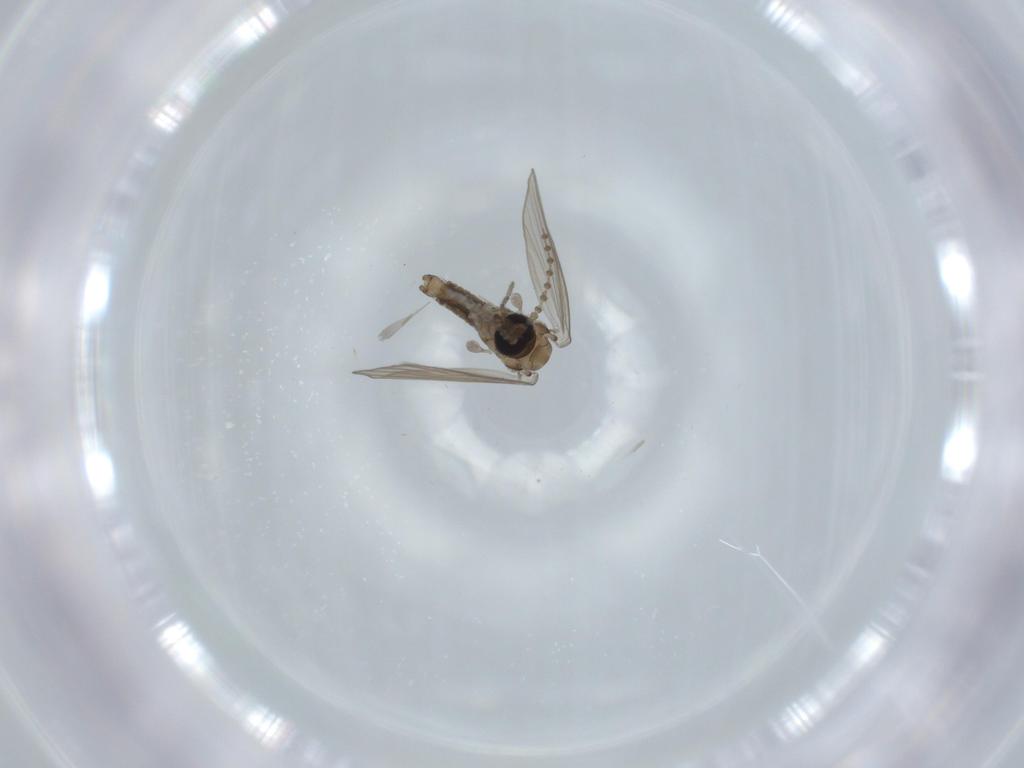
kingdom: Animalia
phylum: Arthropoda
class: Insecta
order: Diptera
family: Psychodidae
